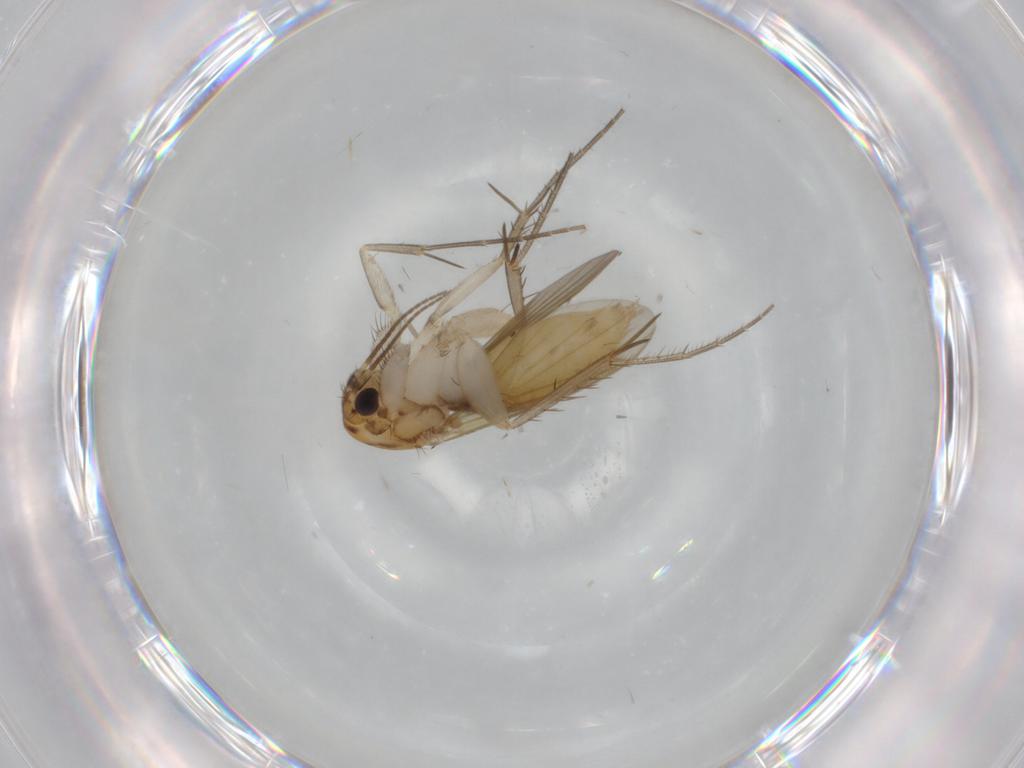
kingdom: Animalia
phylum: Arthropoda
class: Insecta
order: Diptera
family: Mycetophilidae
